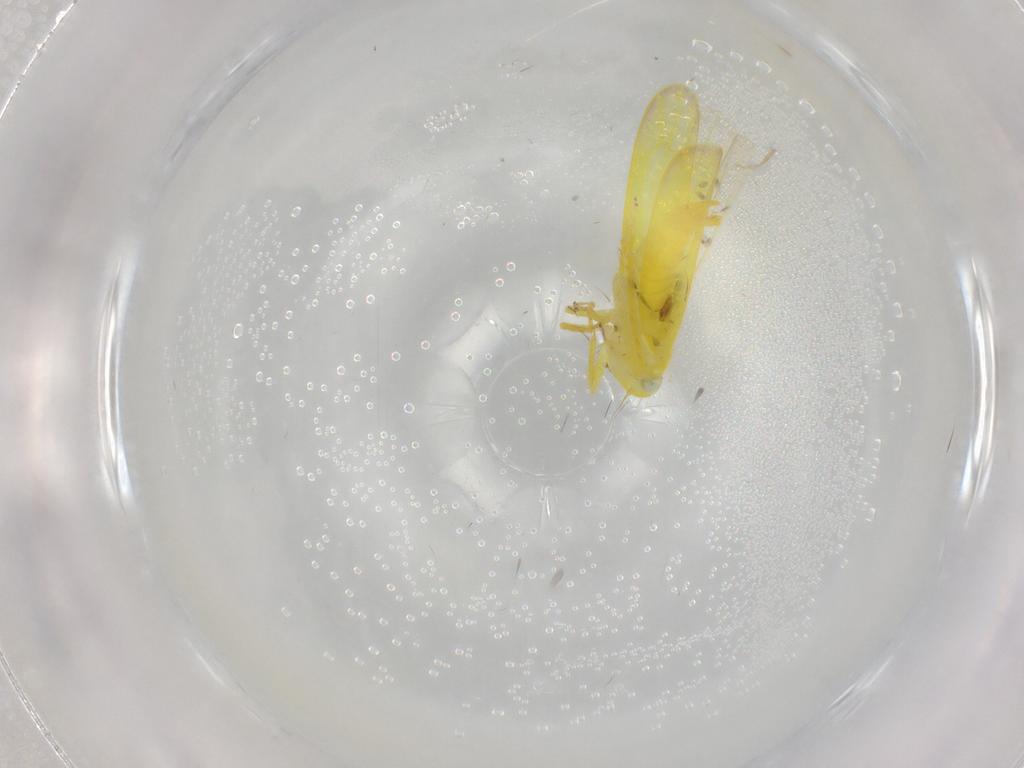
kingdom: Animalia
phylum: Arthropoda
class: Insecta
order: Hemiptera
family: Cicadellidae
